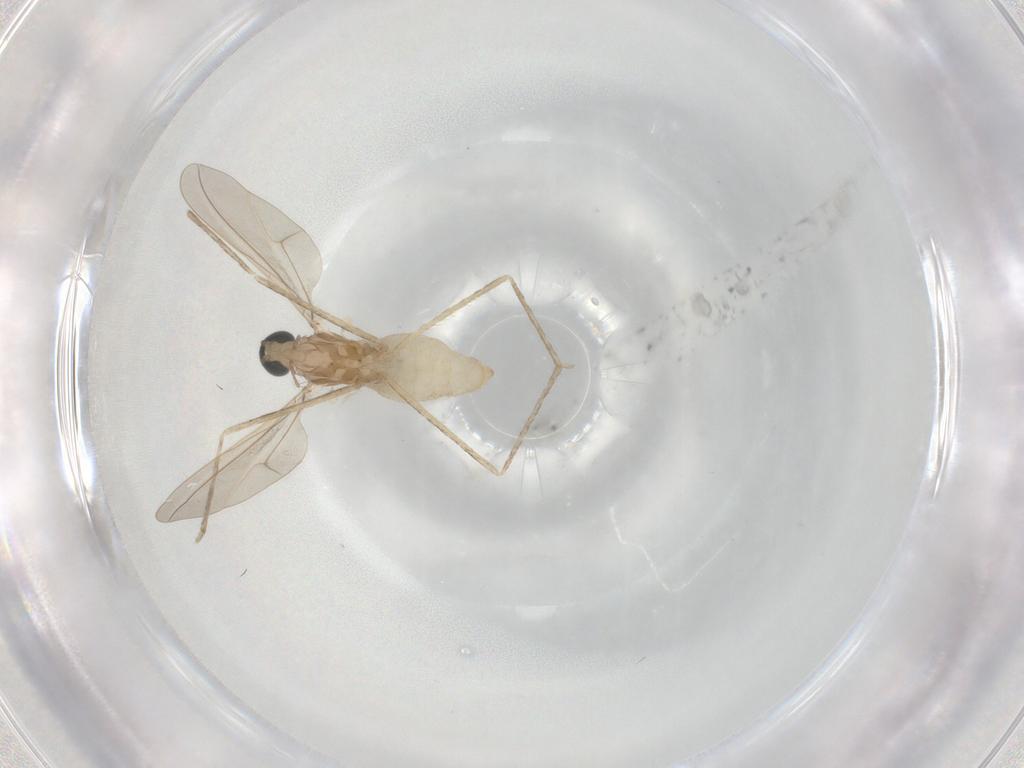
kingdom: Animalia
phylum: Arthropoda
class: Insecta
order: Diptera
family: Cecidomyiidae
